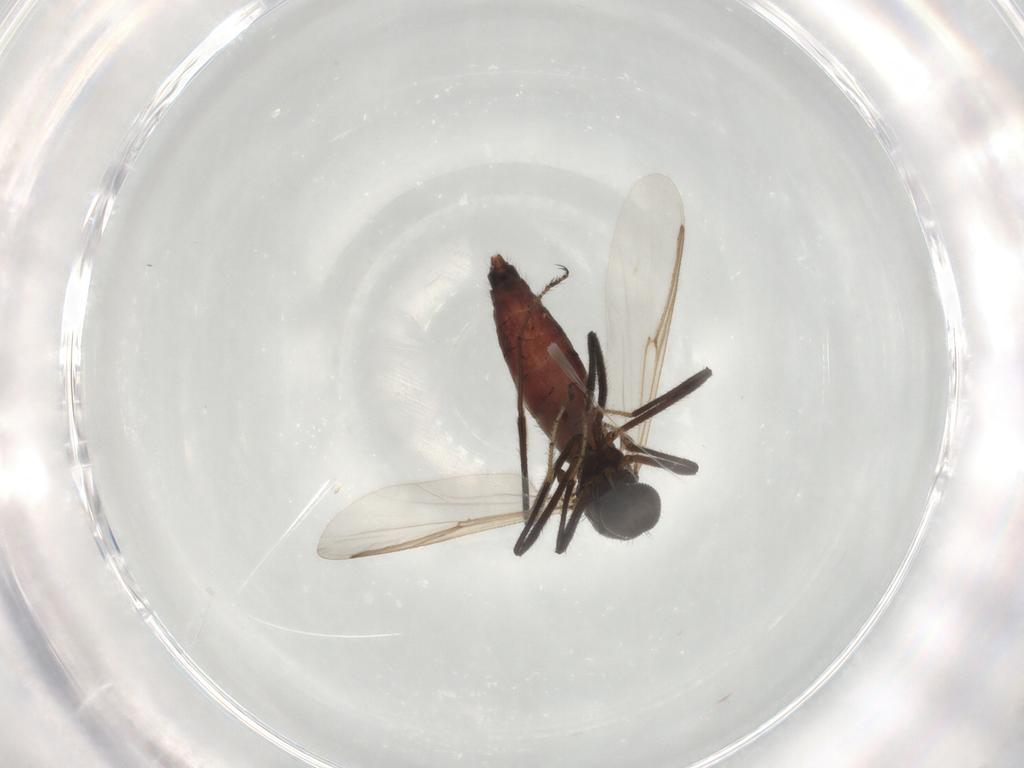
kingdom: Animalia
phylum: Arthropoda
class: Insecta
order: Diptera
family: Ceratopogonidae
